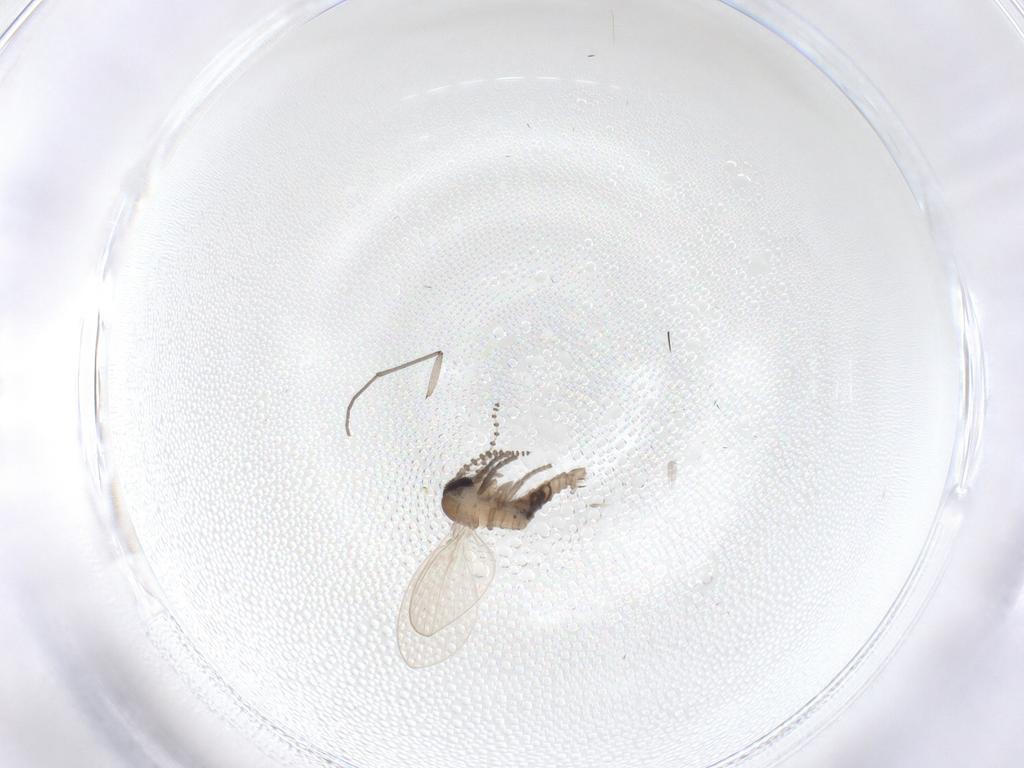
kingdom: Animalia
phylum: Arthropoda
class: Insecta
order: Diptera
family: Psychodidae
